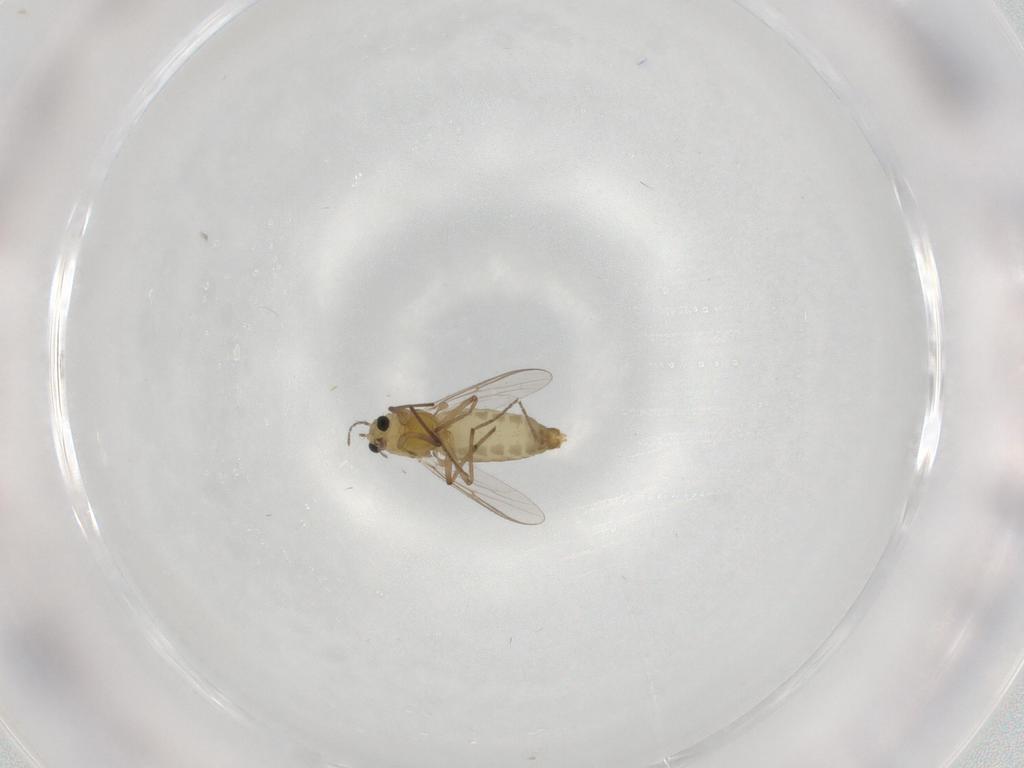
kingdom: Animalia
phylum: Arthropoda
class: Insecta
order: Diptera
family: Chironomidae
